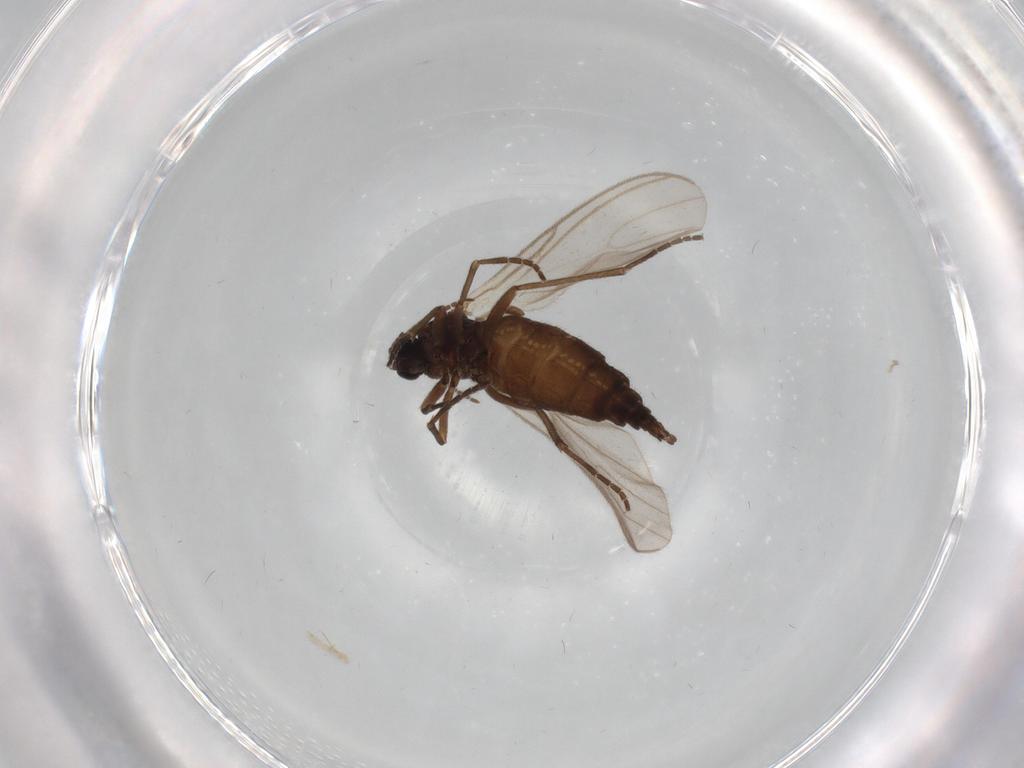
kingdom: Animalia
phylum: Arthropoda
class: Insecta
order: Diptera
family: Sciaridae
